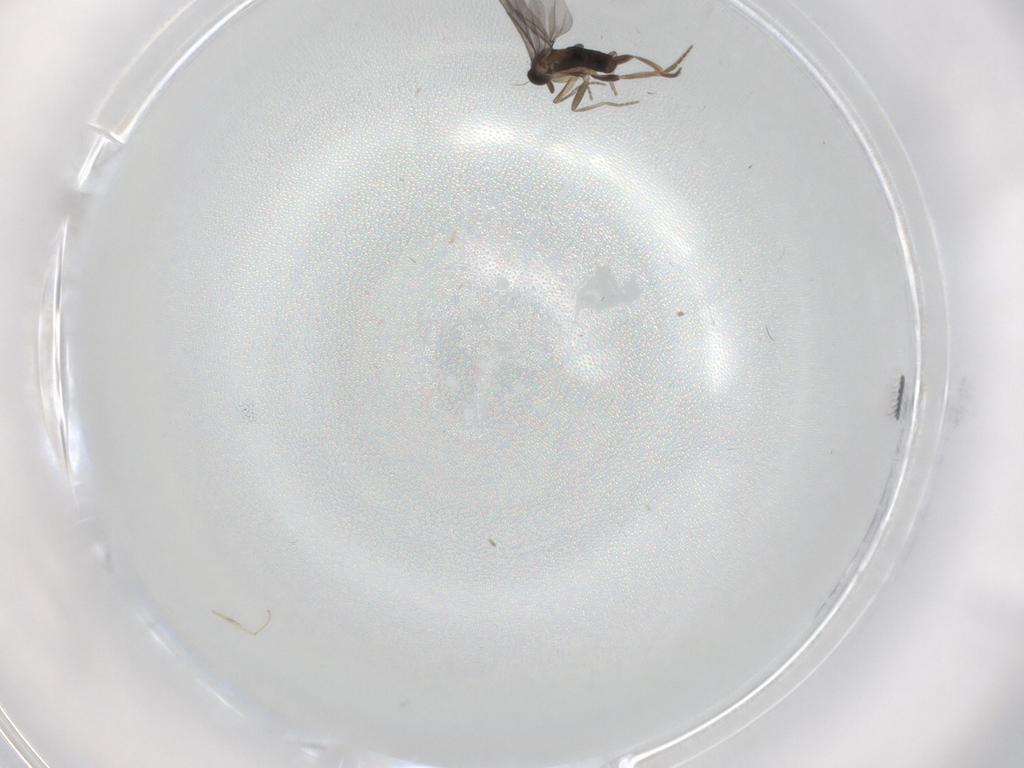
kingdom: Animalia
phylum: Arthropoda
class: Insecta
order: Diptera
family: Cecidomyiidae
